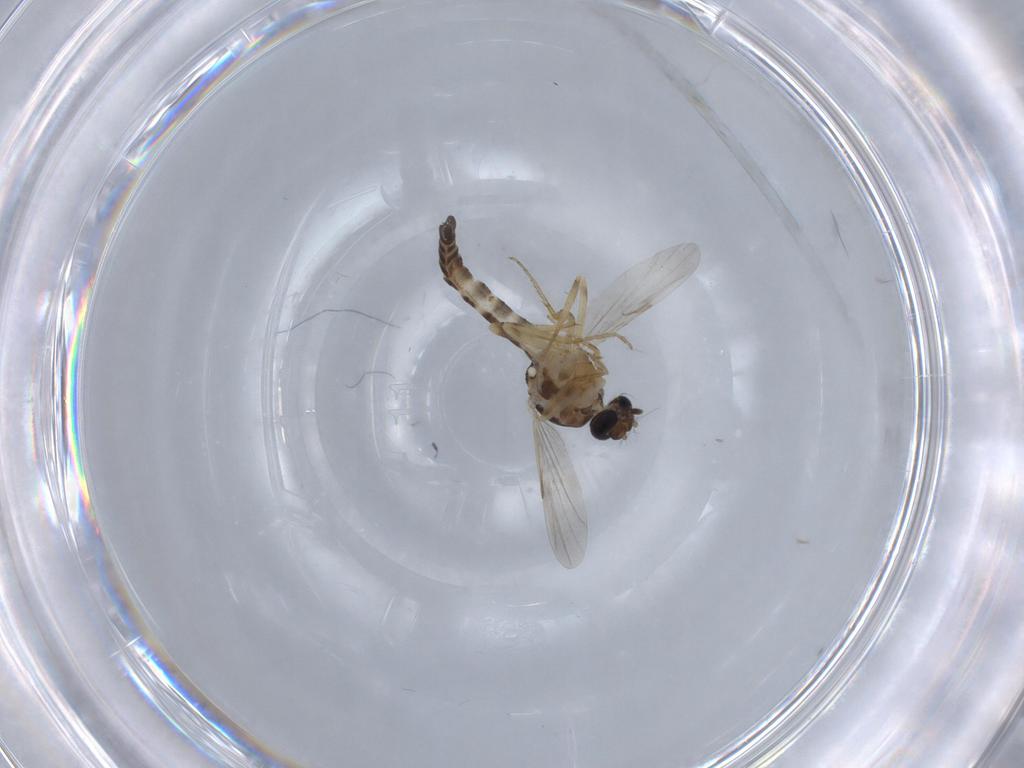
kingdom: Animalia
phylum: Arthropoda
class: Insecta
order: Diptera
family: Ceratopogonidae
